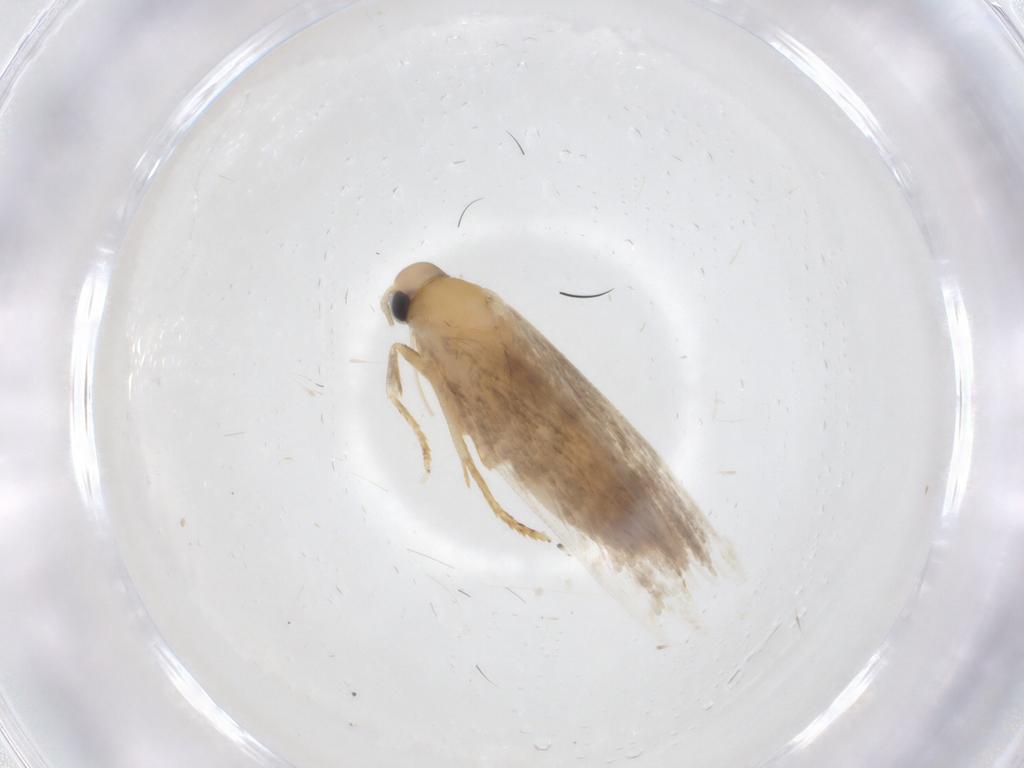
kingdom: Animalia
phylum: Arthropoda
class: Insecta
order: Lepidoptera
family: Autostichidae
